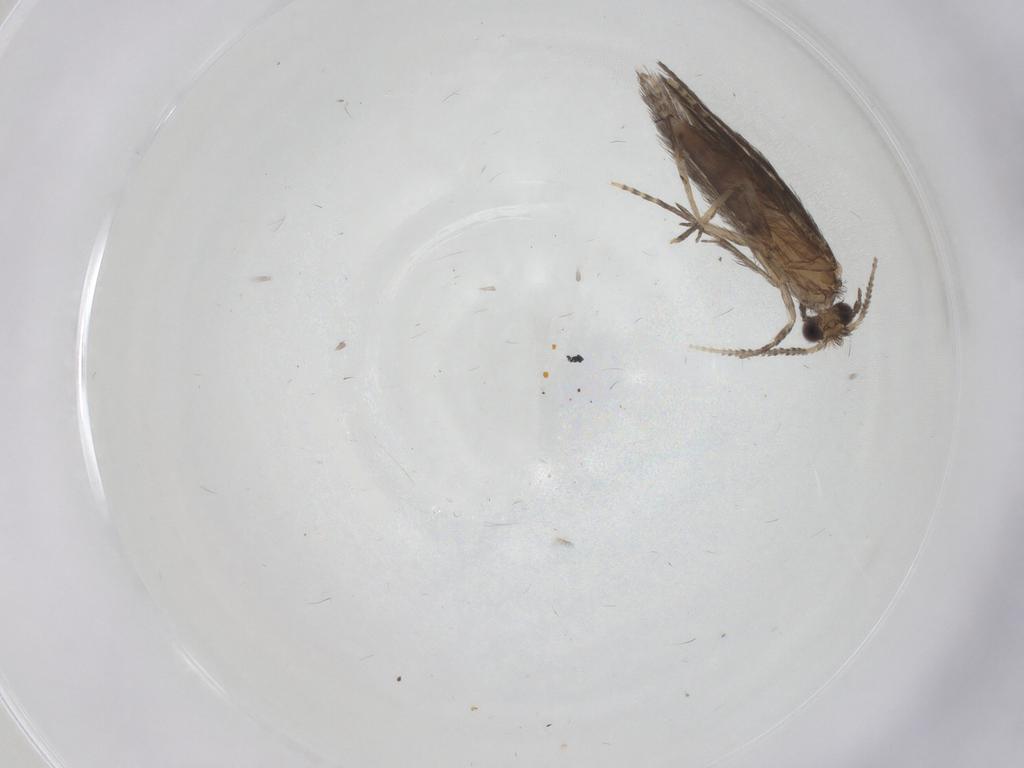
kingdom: Animalia
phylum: Arthropoda
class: Insecta
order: Trichoptera
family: Hydroptilidae
